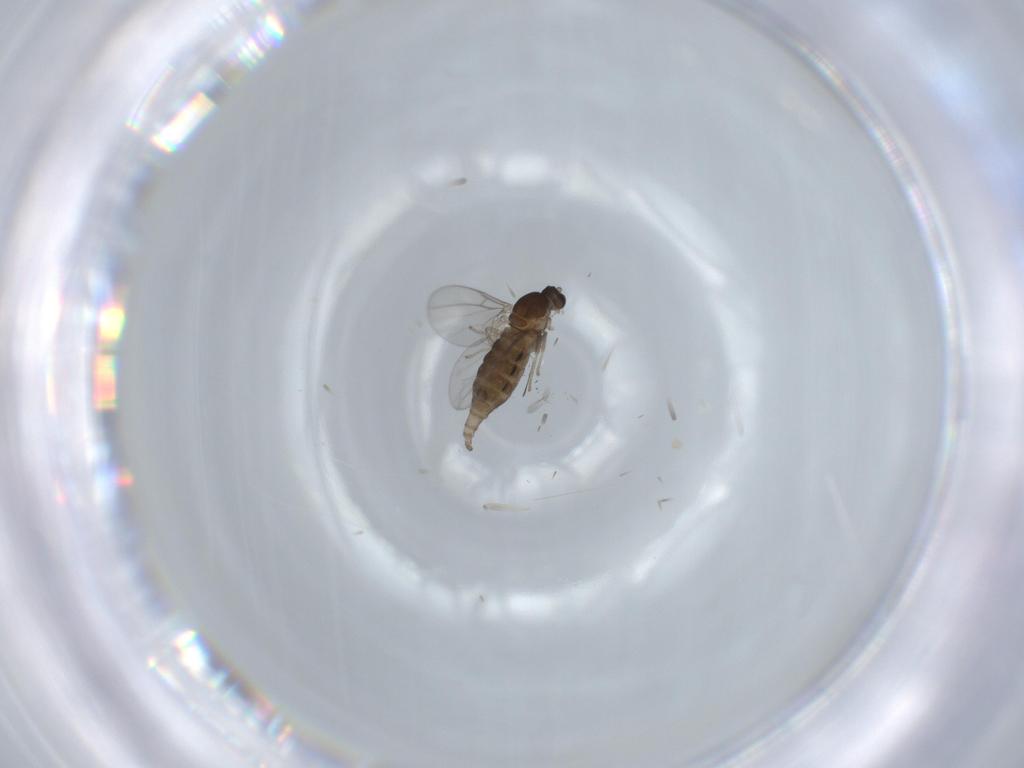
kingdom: Animalia
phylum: Arthropoda
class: Insecta
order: Diptera
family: Cecidomyiidae
